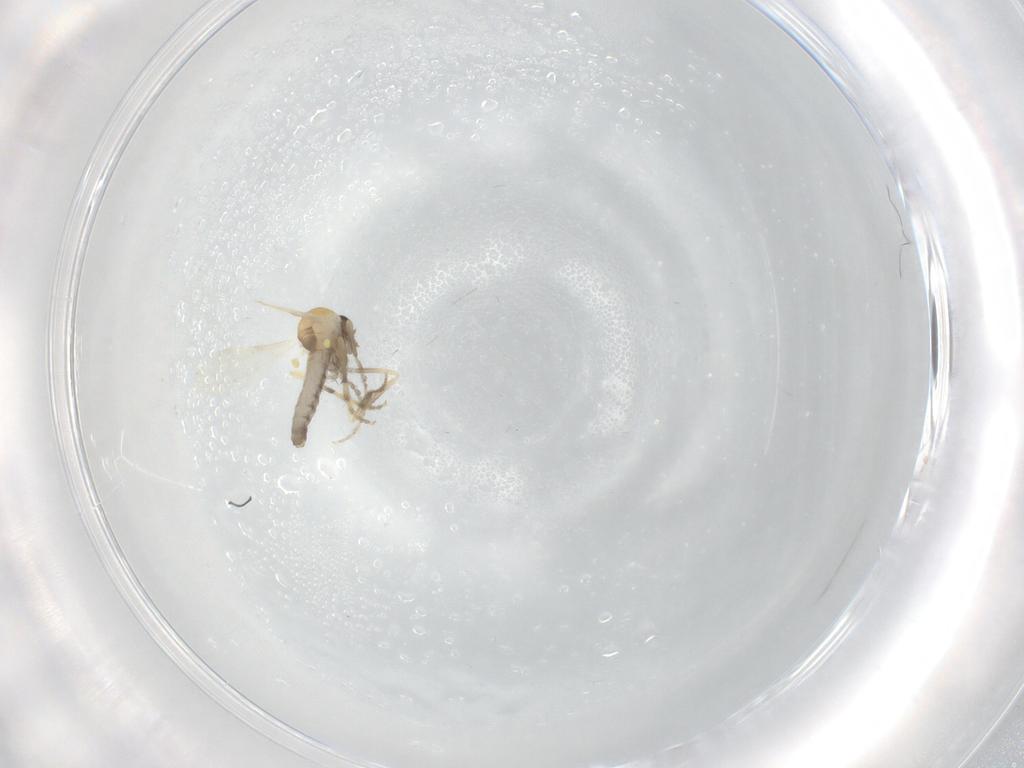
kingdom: Animalia
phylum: Arthropoda
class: Insecta
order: Diptera
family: Ceratopogonidae
